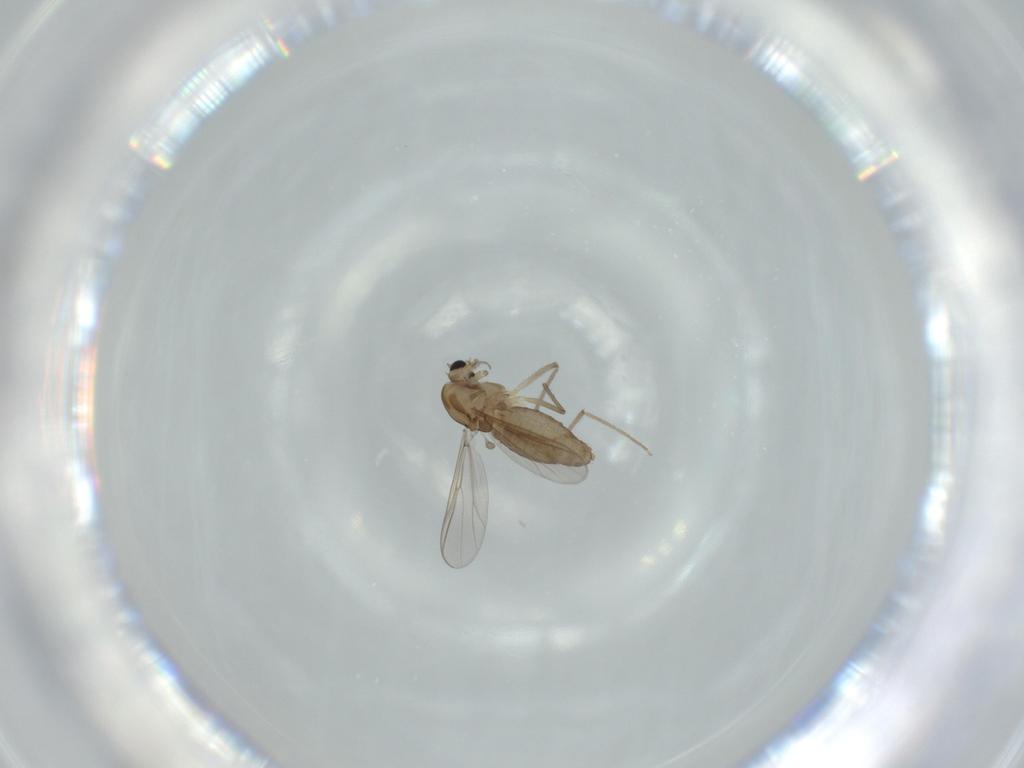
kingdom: Animalia
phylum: Arthropoda
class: Insecta
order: Diptera
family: Chironomidae
